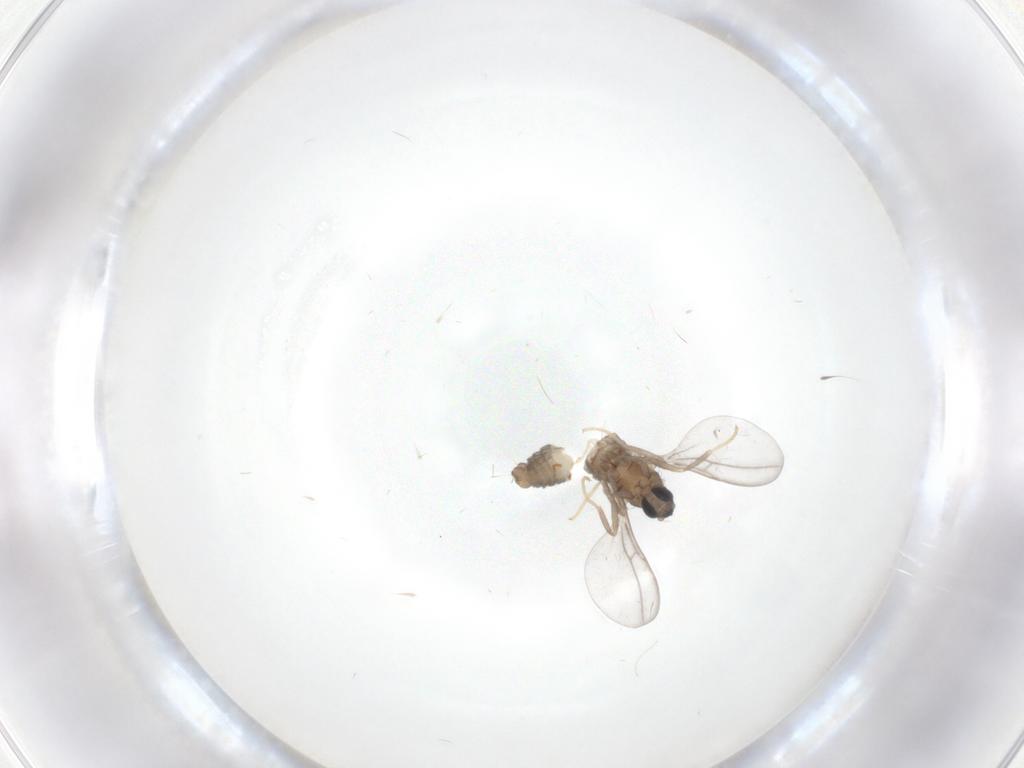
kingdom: Animalia
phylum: Arthropoda
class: Insecta
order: Diptera
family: Cecidomyiidae
